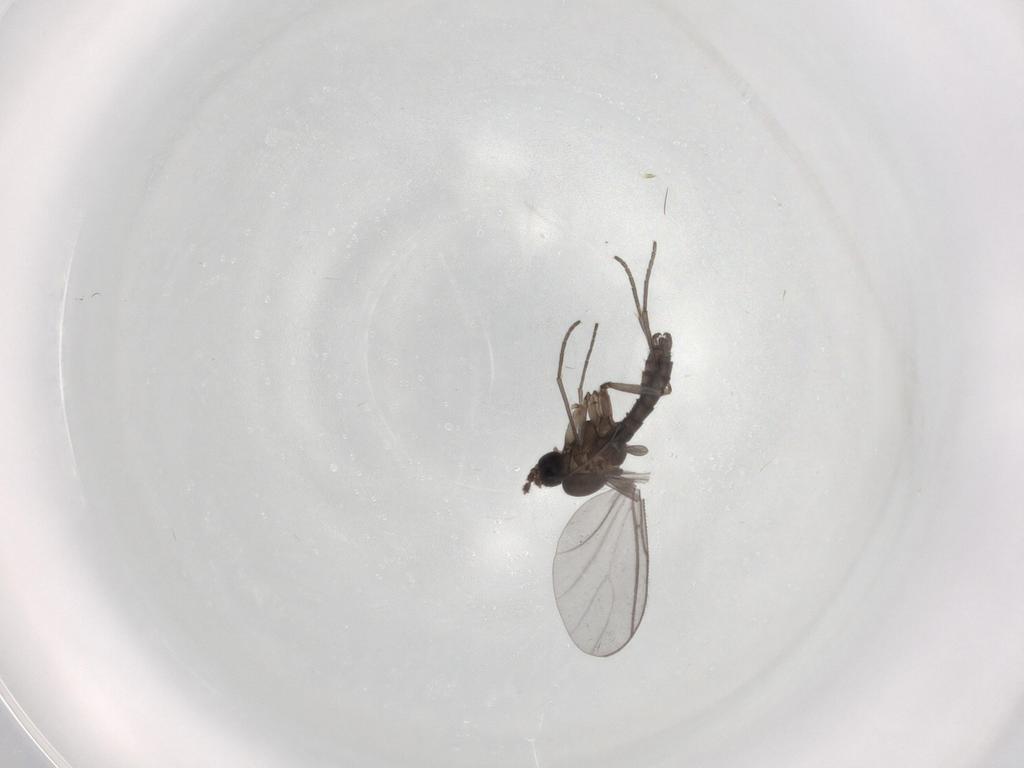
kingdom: Animalia
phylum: Arthropoda
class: Insecta
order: Diptera
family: Sciaridae
